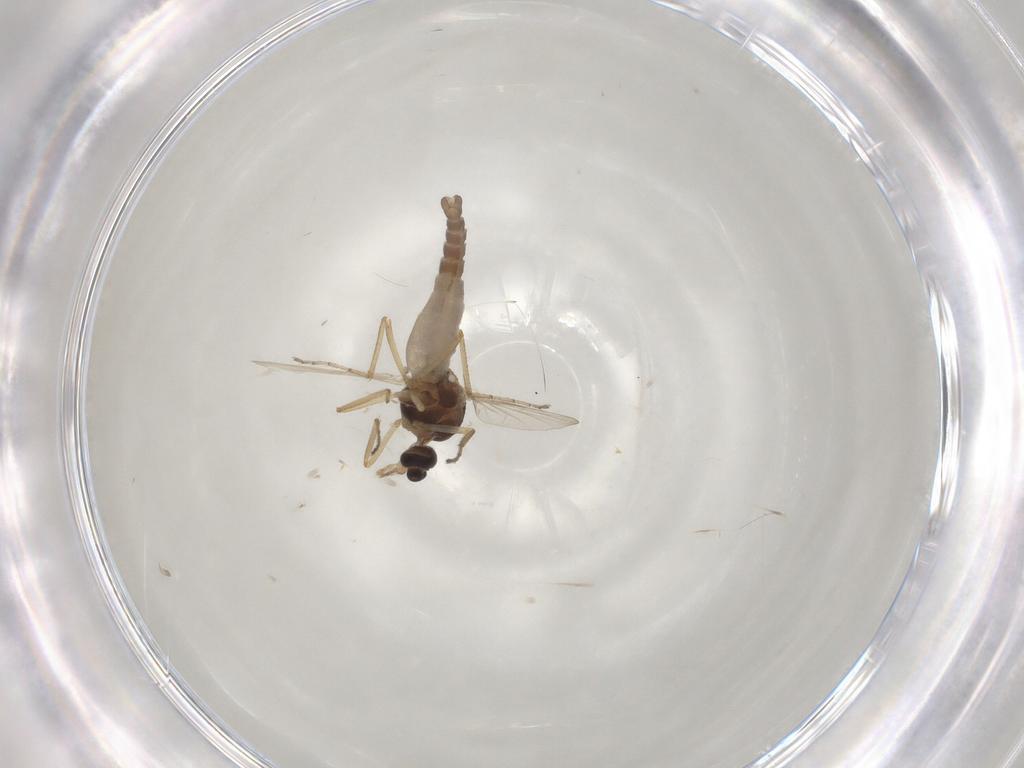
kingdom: Animalia
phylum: Arthropoda
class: Insecta
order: Diptera
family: Ceratopogonidae
